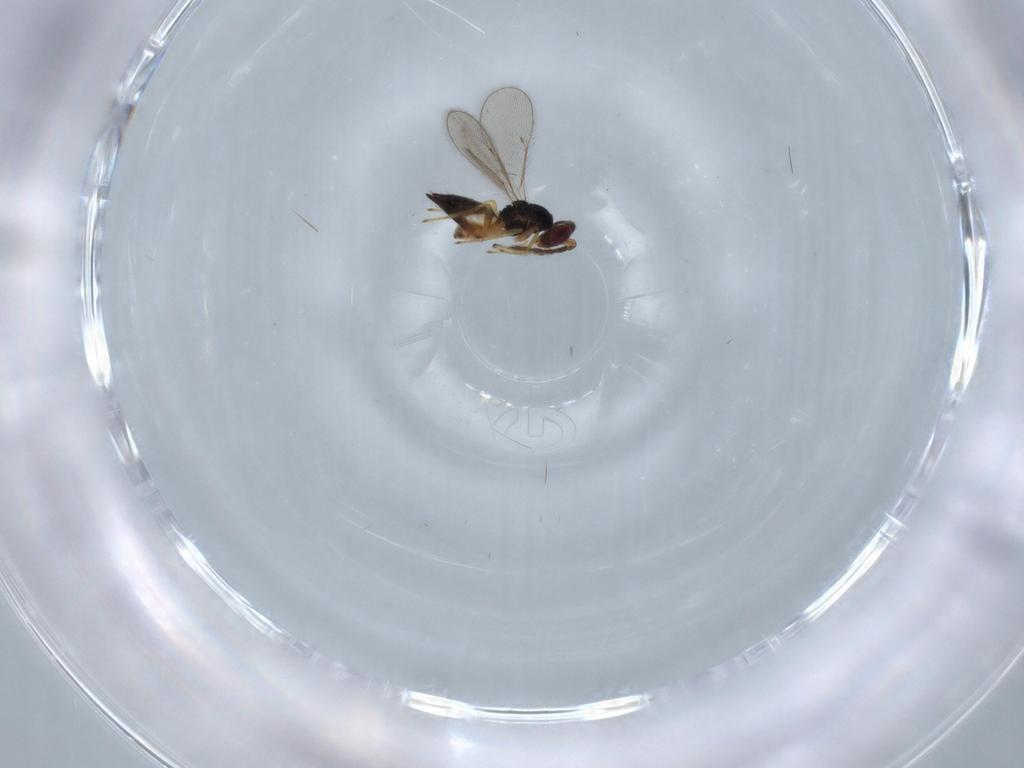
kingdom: Animalia
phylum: Arthropoda
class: Insecta
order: Hymenoptera
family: Eulophidae
